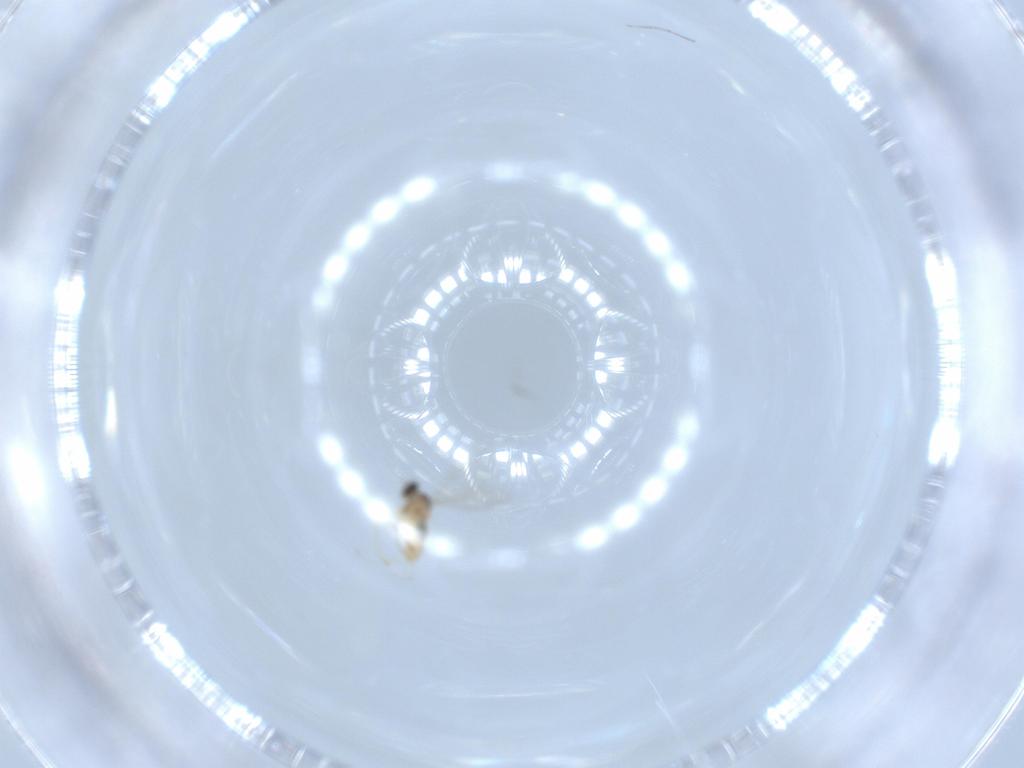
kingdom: Animalia
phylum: Arthropoda
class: Insecta
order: Diptera
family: Cecidomyiidae
